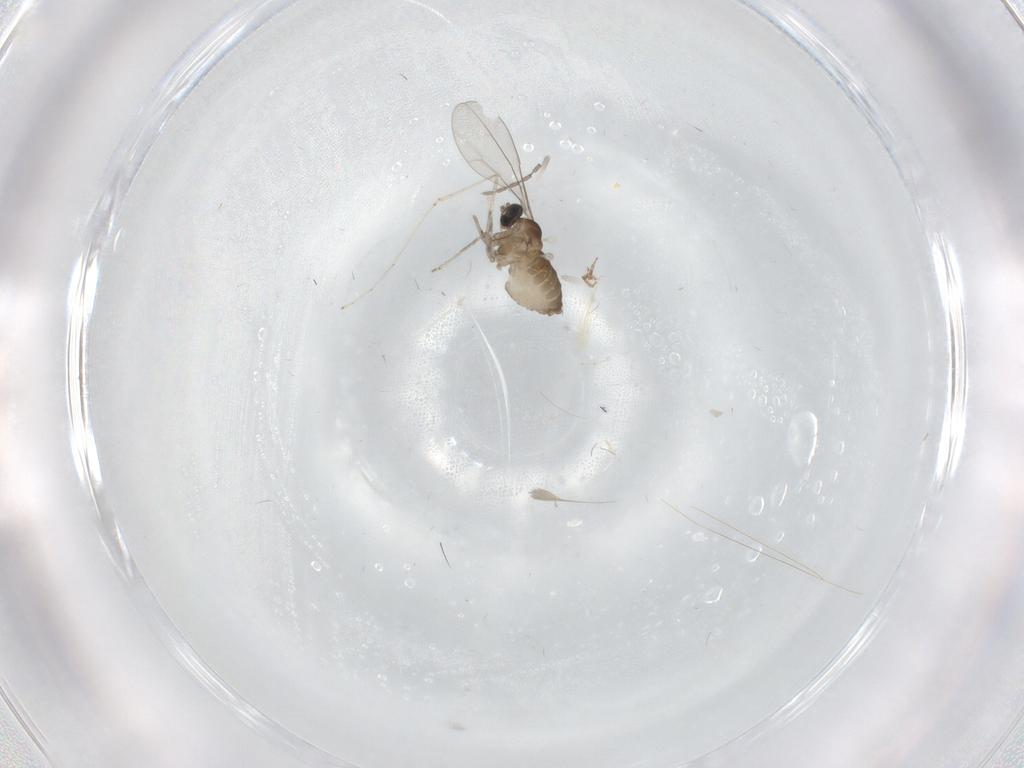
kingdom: Animalia
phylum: Arthropoda
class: Insecta
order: Diptera
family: Cecidomyiidae
